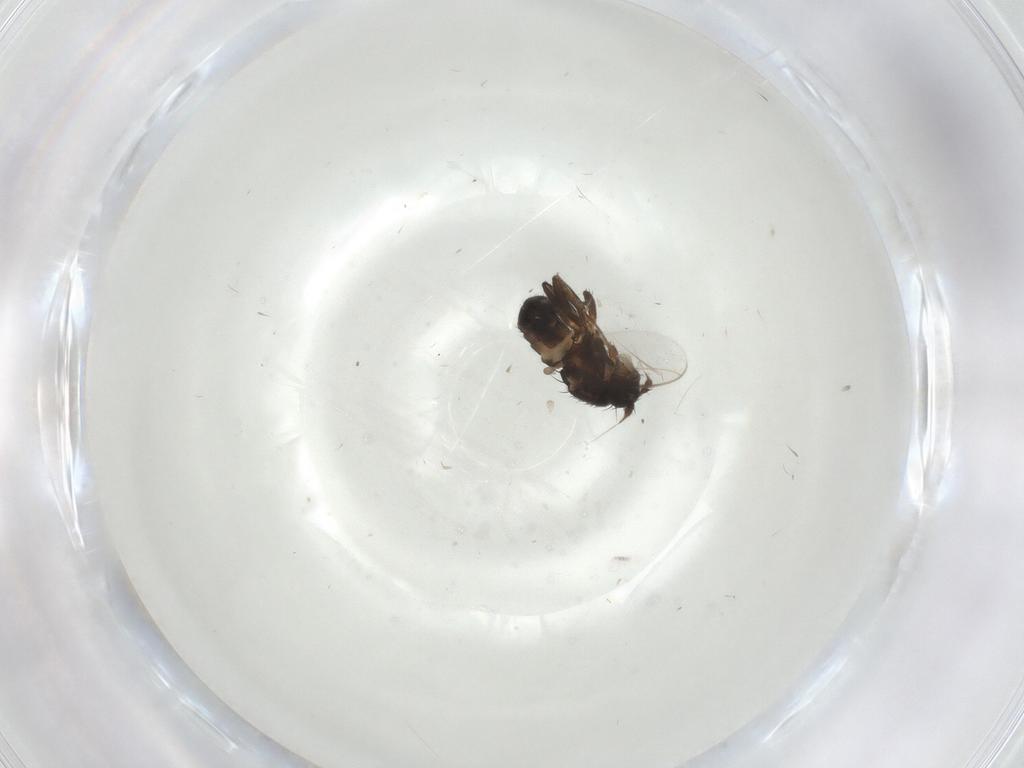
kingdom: Animalia
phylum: Arthropoda
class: Insecta
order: Diptera
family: Sphaeroceridae
